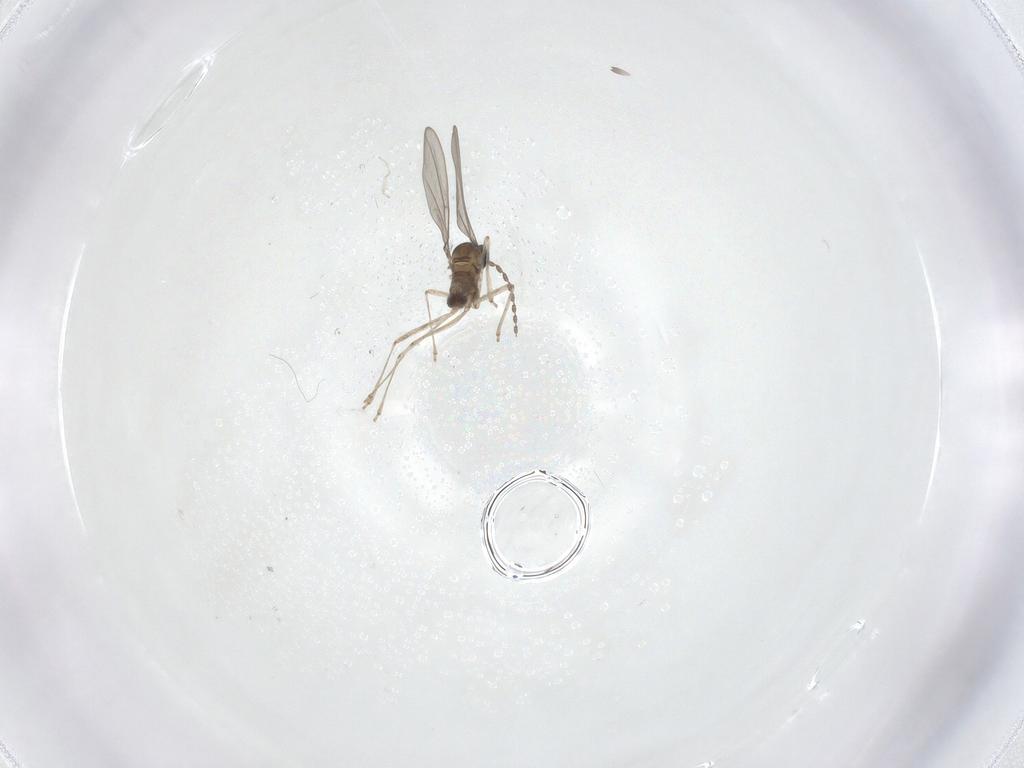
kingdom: Animalia
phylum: Arthropoda
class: Insecta
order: Diptera
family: Cecidomyiidae
